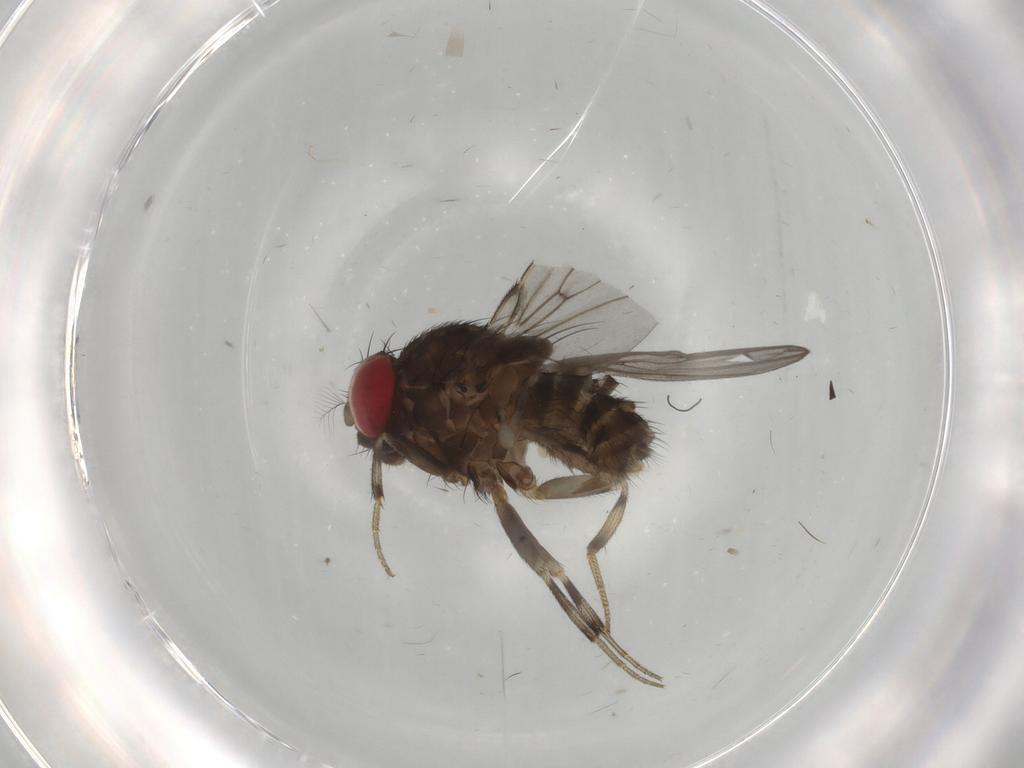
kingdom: Animalia
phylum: Arthropoda
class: Insecta
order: Diptera
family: Drosophilidae
